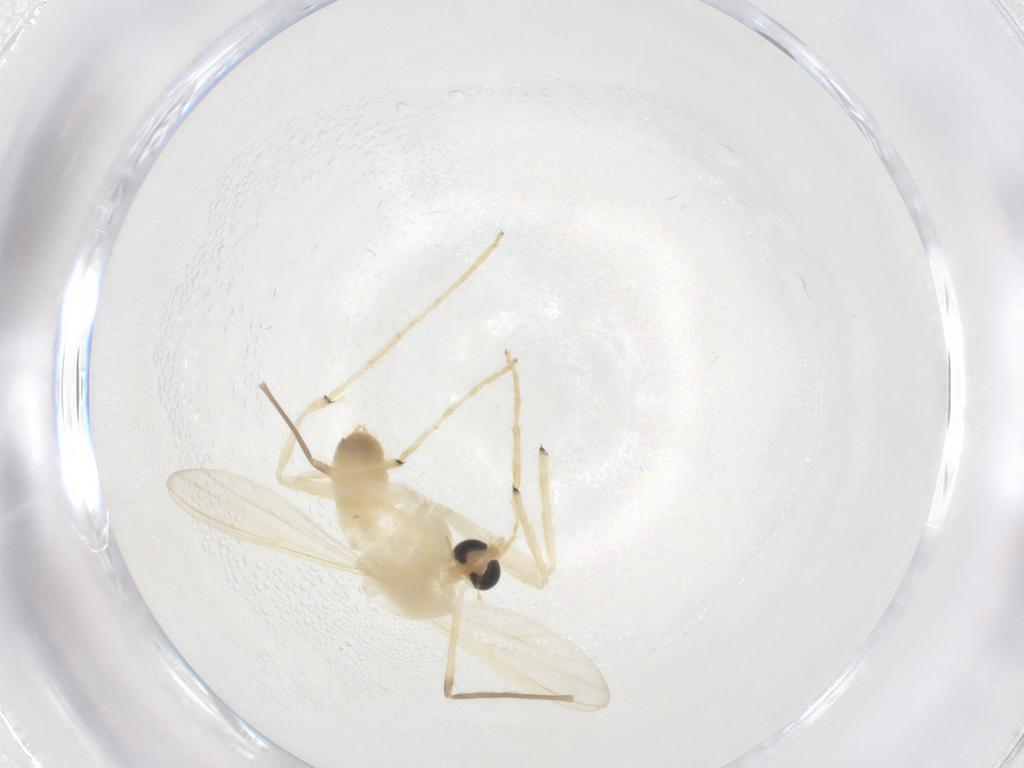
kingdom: Animalia
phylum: Arthropoda
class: Insecta
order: Diptera
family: Chironomidae
